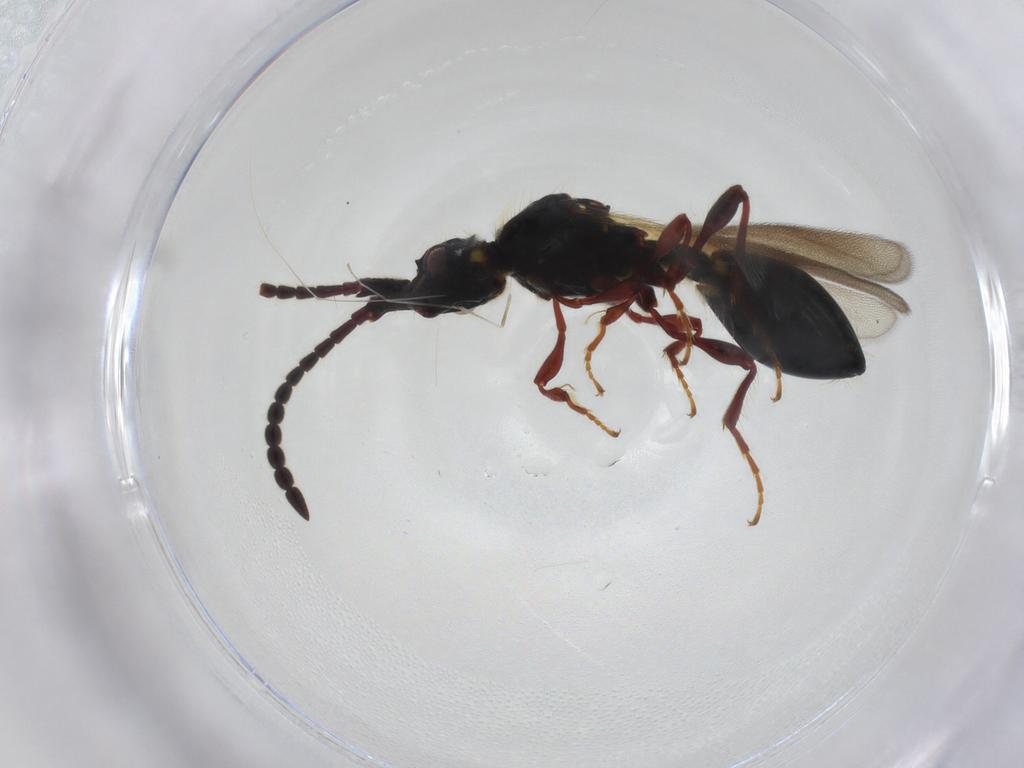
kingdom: Animalia
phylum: Arthropoda
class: Insecta
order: Hymenoptera
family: Diapriidae
